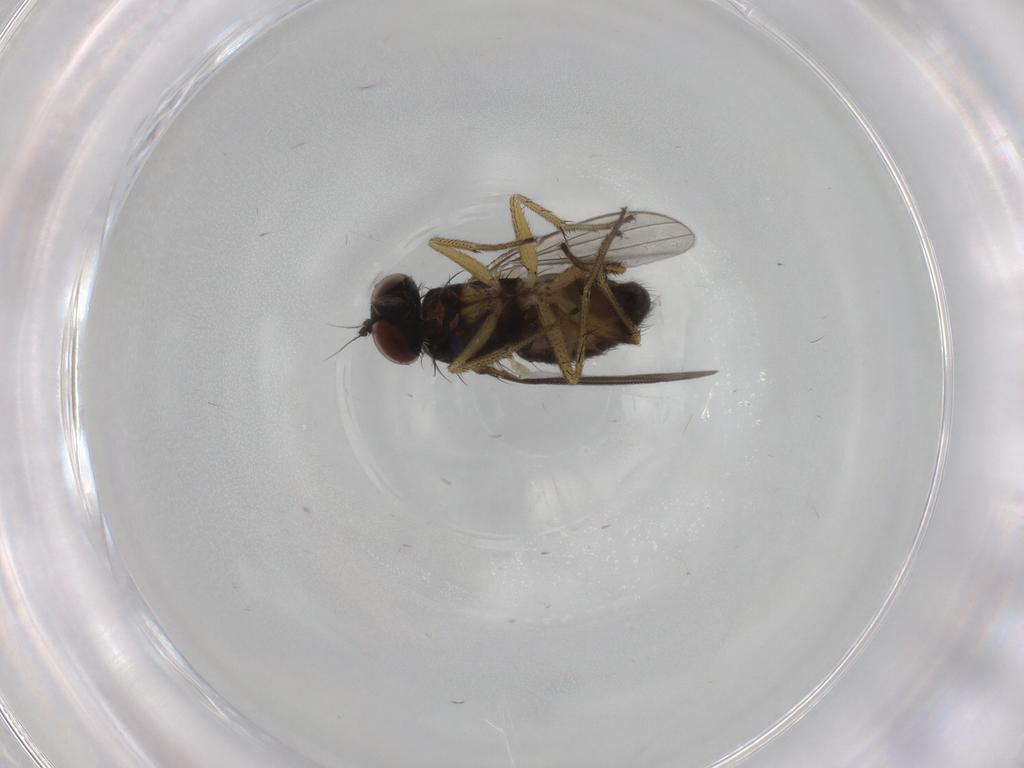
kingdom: Animalia
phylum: Arthropoda
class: Insecta
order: Diptera
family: Dolichopodidae
